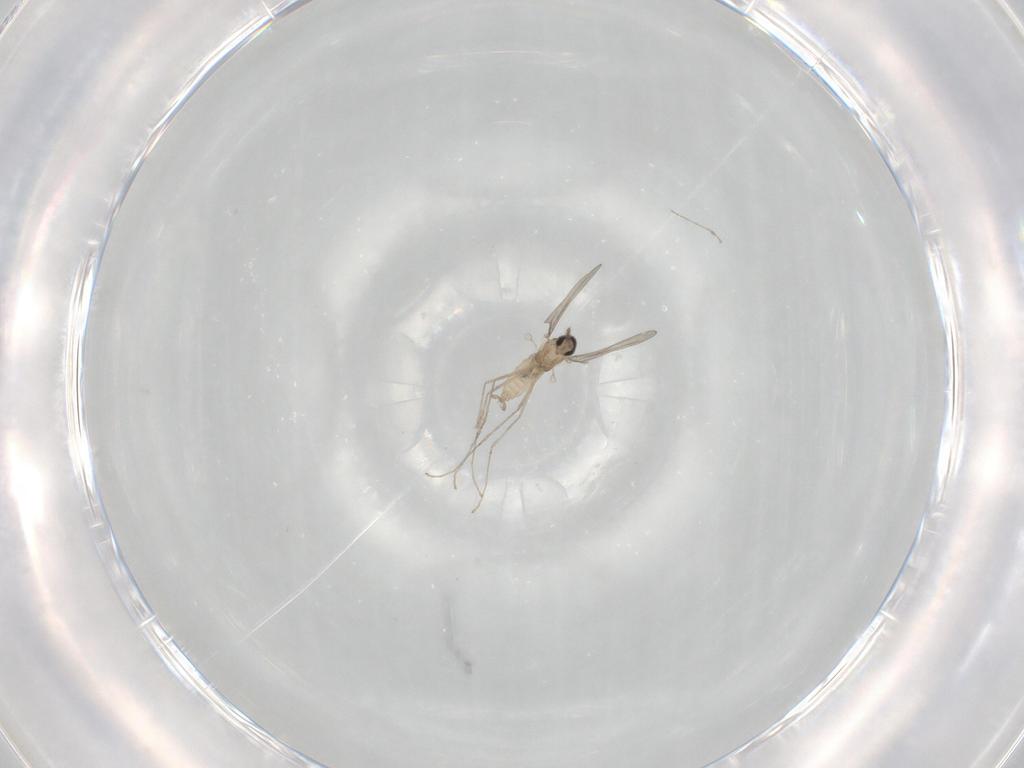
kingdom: Animalia
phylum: Arthropoda
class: Insecta
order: Diptera
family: Cecidomyiidae
